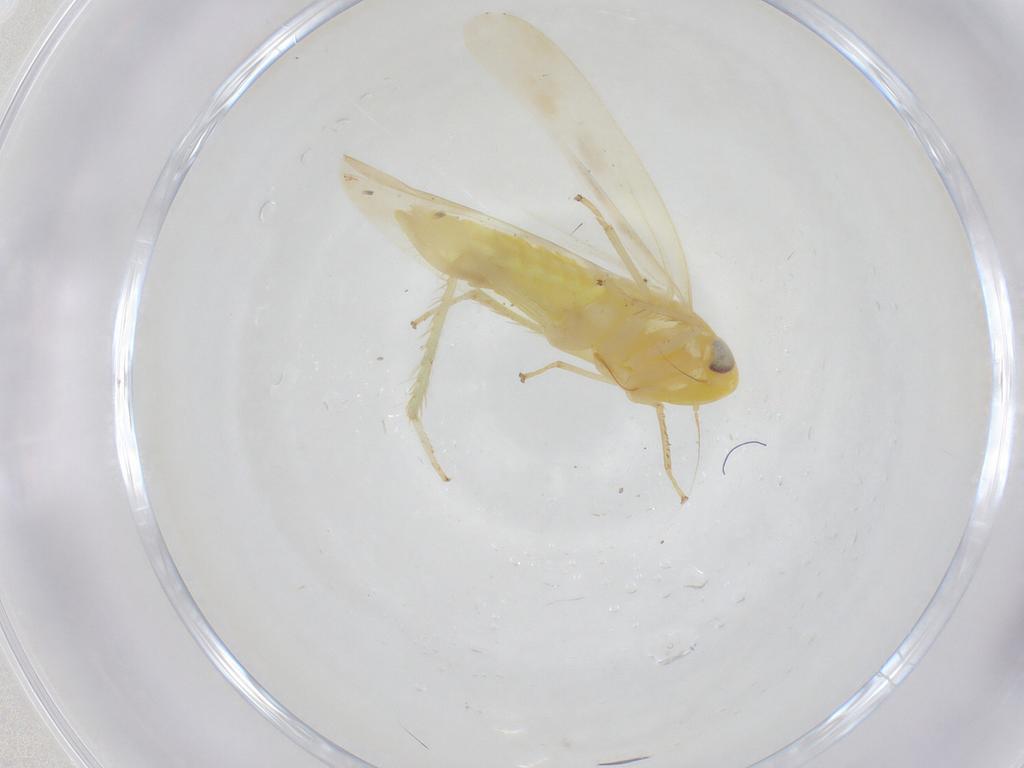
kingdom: Animalia
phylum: Arthropoda
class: Insecta
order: Hemiptera
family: Cicadellidae
